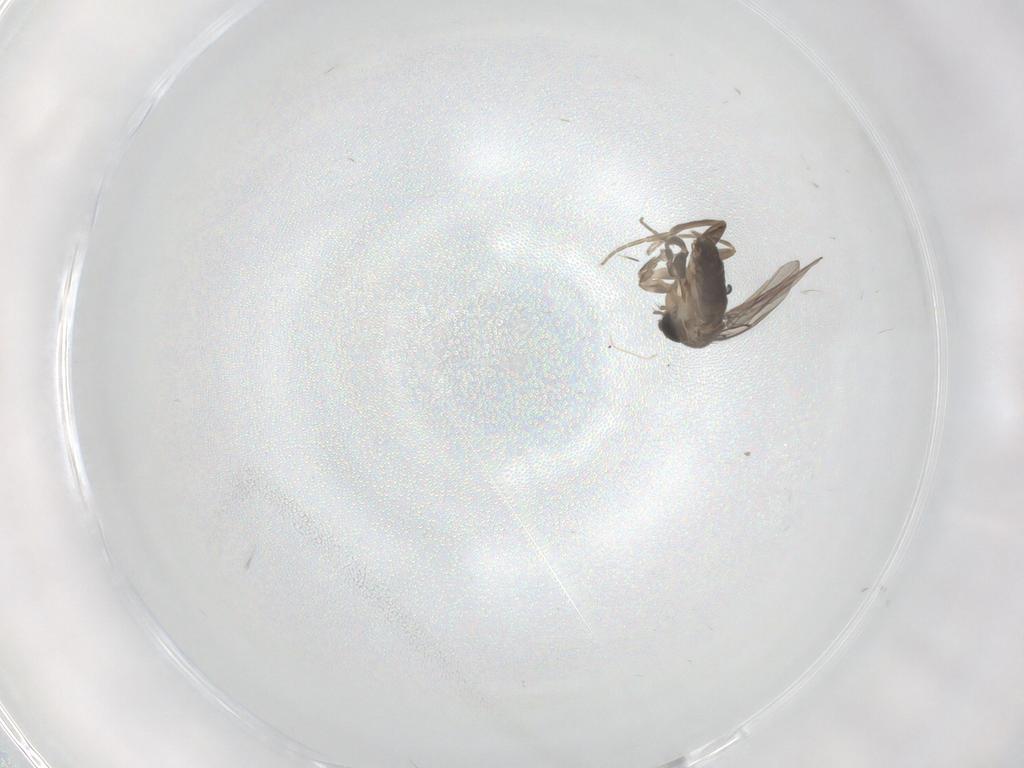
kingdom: Animalia
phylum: Arthropoda
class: Insecta
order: Diptera
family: Phoridae
